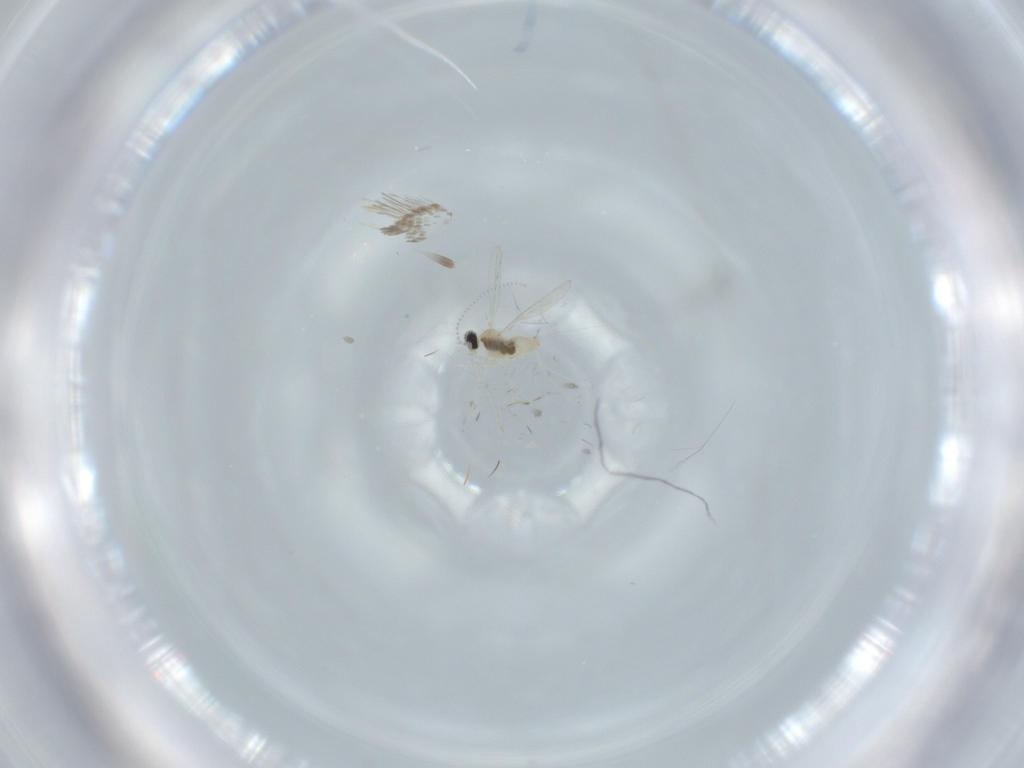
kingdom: Animalia
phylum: Arthropoda
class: Insecta
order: Diptera
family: Cecidomyiidae
